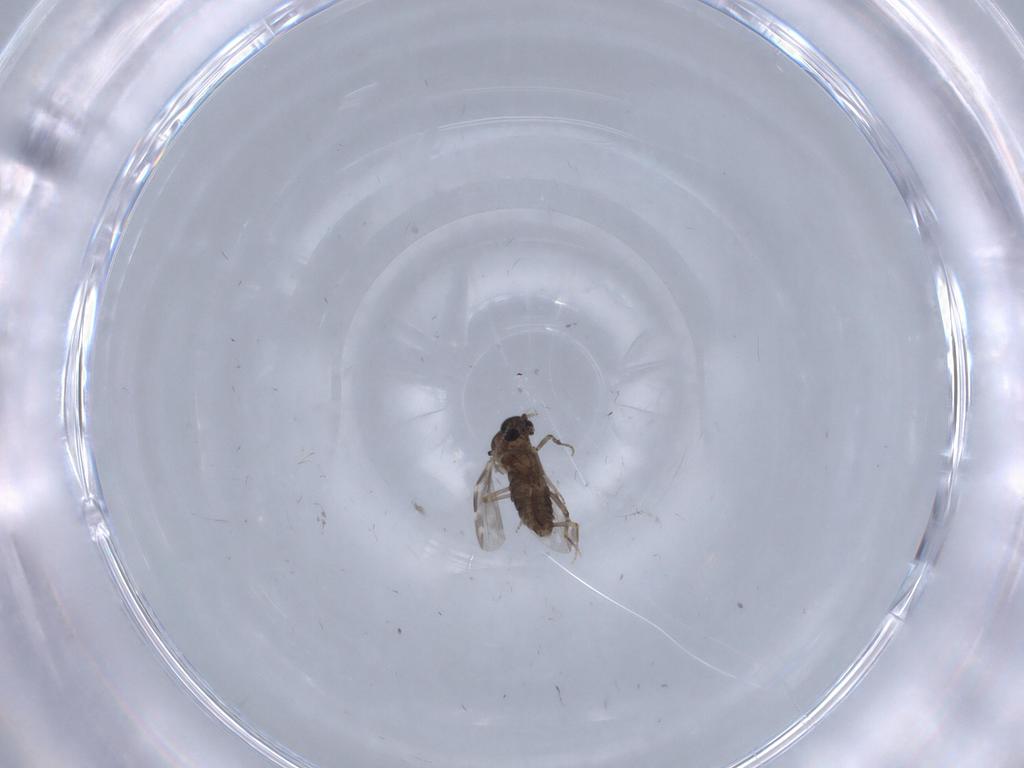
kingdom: Animalia
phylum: Arthropoda
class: Insecta
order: Diptera
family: Ceratopogonidae
